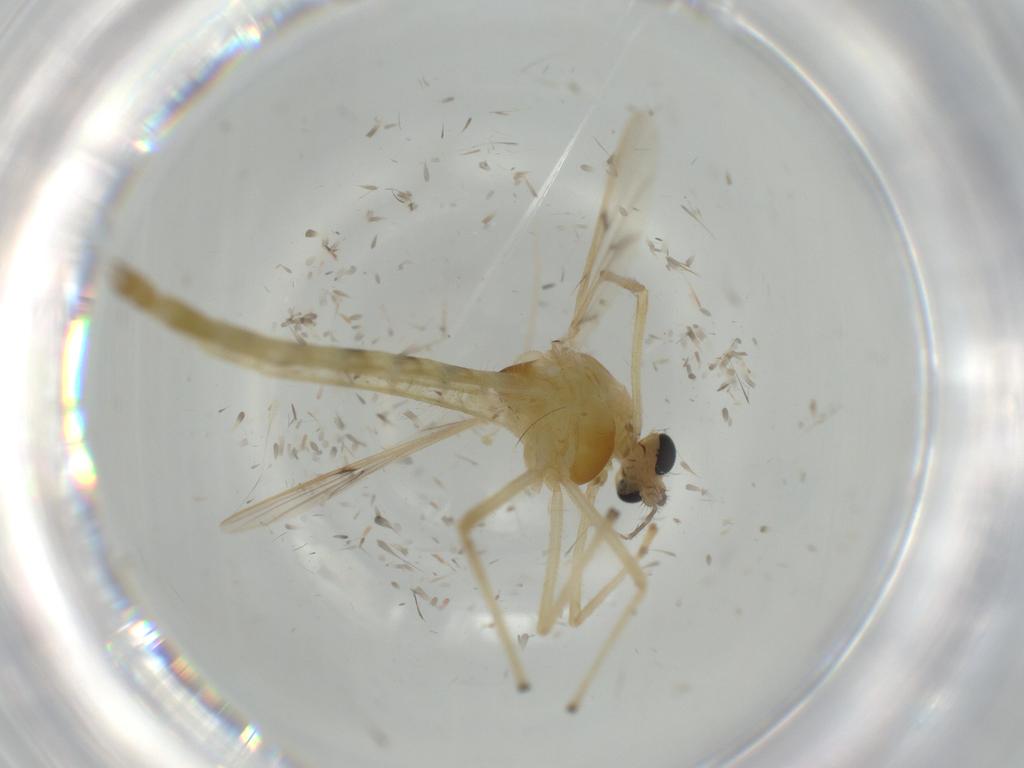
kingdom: Animalia
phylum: Arthropoda
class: Insecta
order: Diptera
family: Chironomidae
